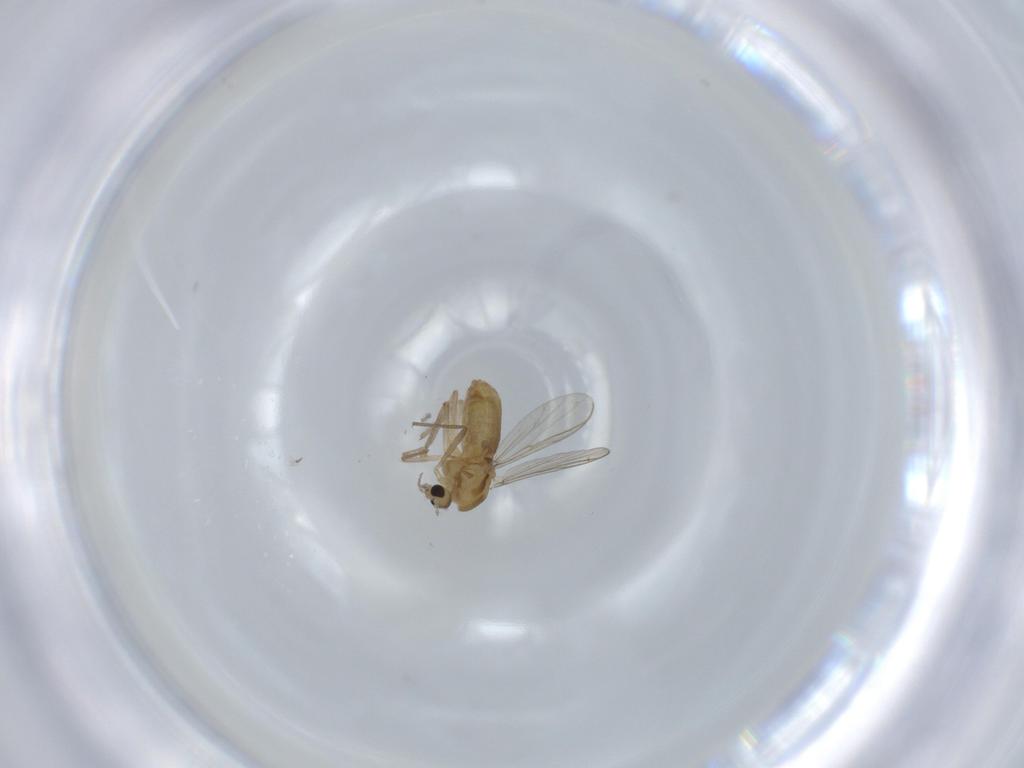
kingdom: Animalia
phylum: Arthropoda
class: Insecta
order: Diptera
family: Chironomidae
